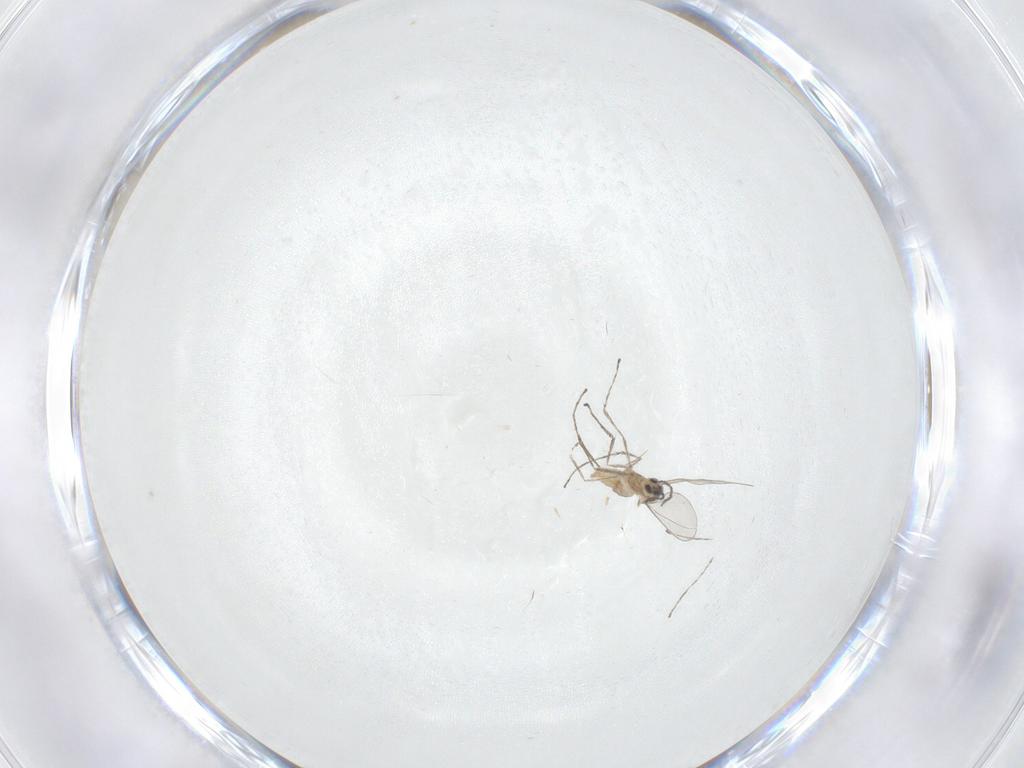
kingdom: Animalia
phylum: Arthropoda
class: Insecta
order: Diptera
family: Cecidomyiidae
